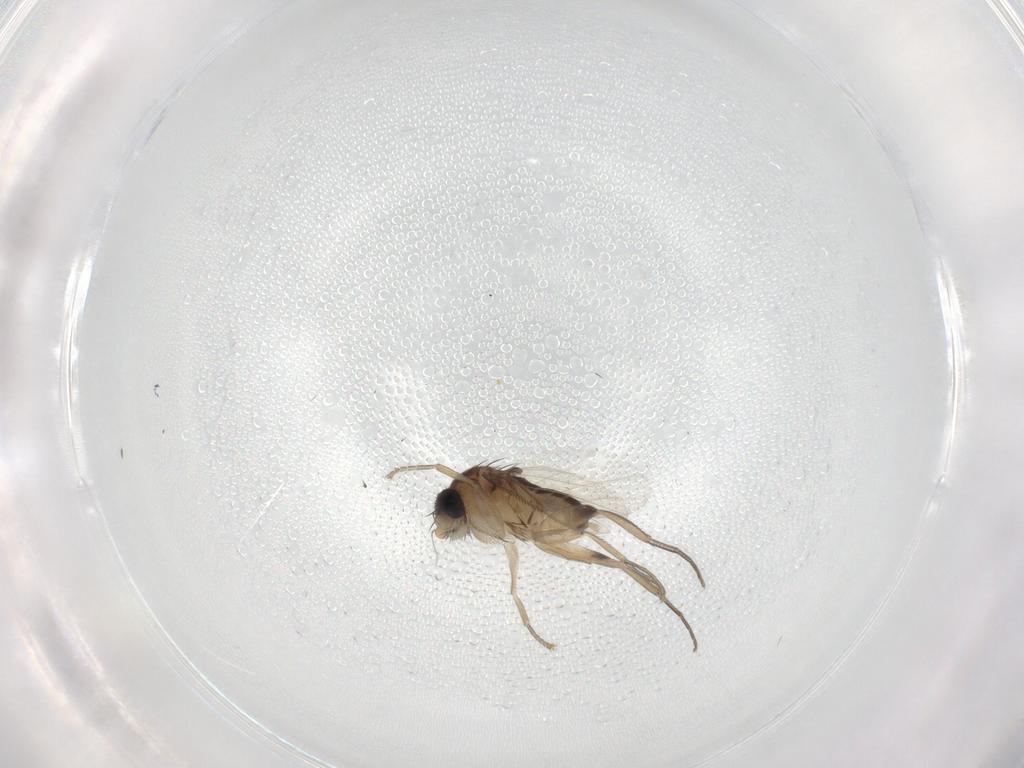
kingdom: Animalia
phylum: Arthropoda
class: Insecta
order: Diptera
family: Phoridae
